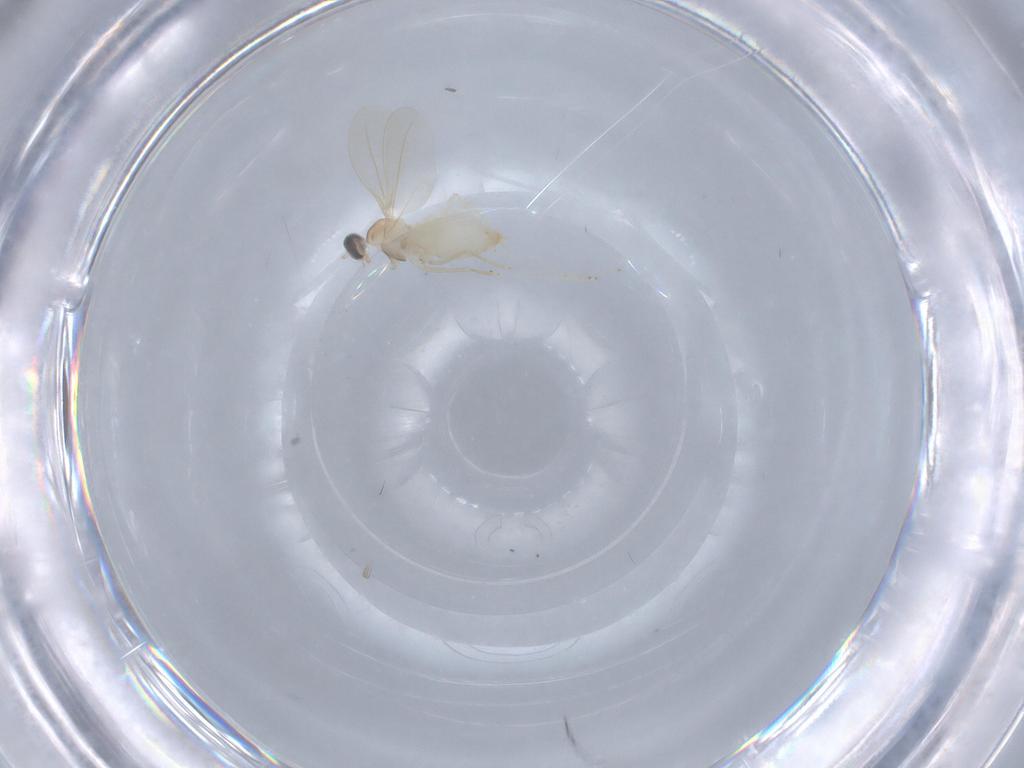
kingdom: Animalia
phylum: Arthropoda
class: Insecta
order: Diptera
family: Cecidomyiidae
